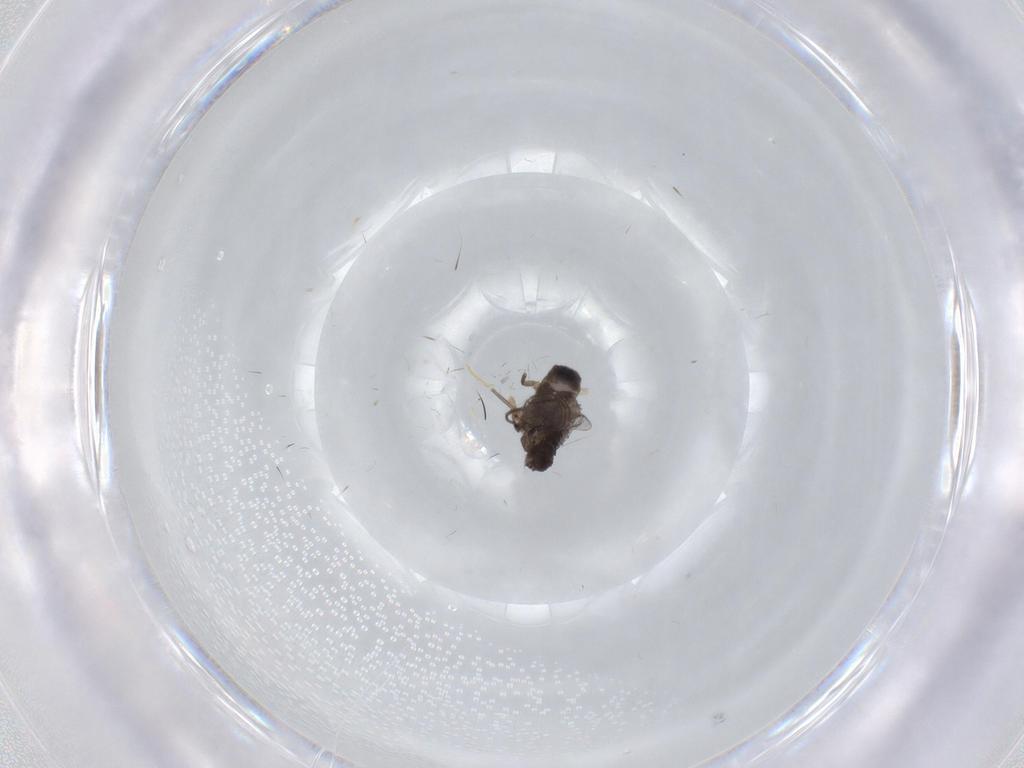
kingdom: Animalia
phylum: Arthropoda
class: Insecta
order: Diptera
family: Sciaridae
